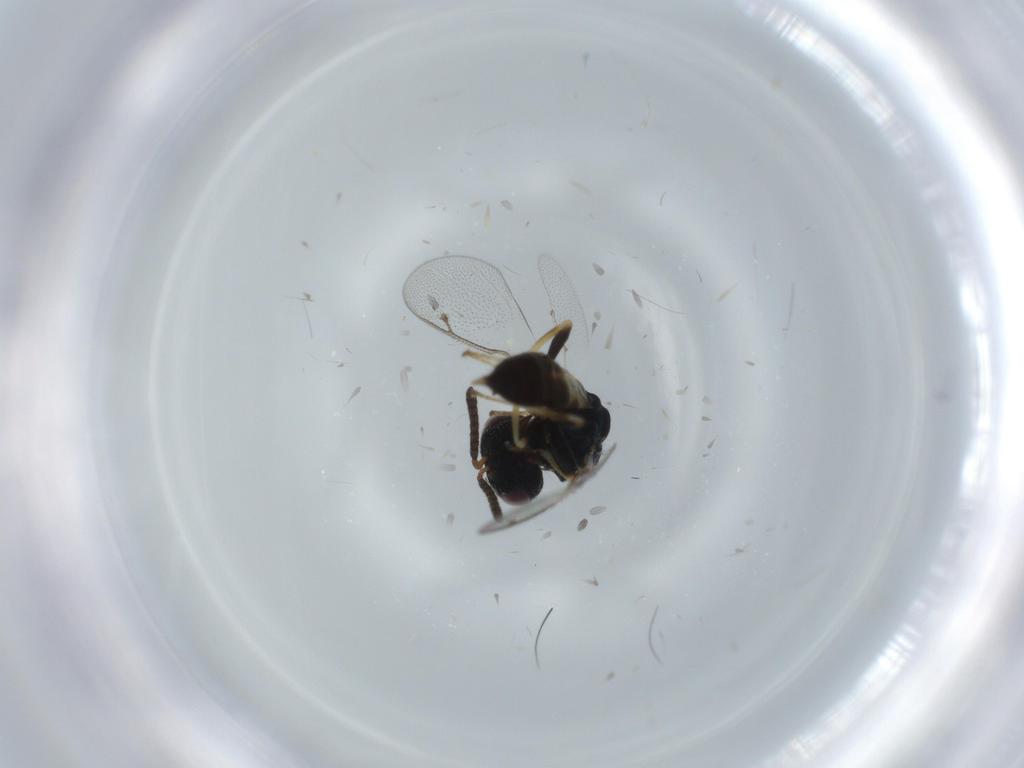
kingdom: Animalia
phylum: Arthropoda
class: Insecta
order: Hymenoptera
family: Pteromalidae
